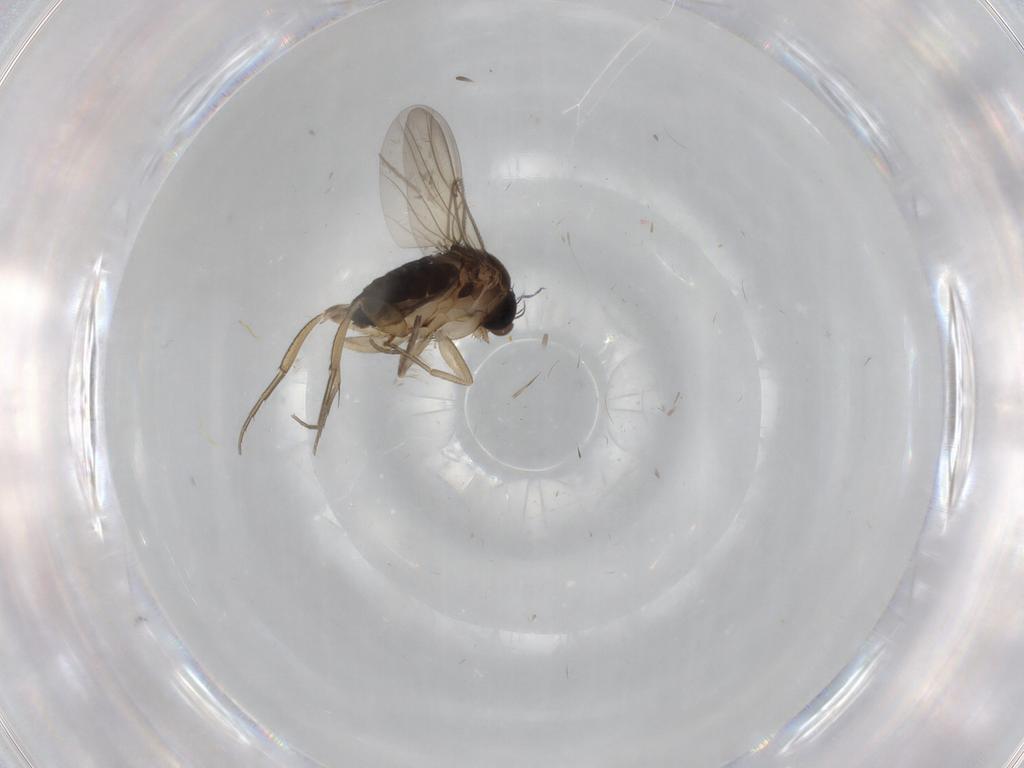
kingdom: Animalia
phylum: Arthropoda
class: Insecta
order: Diptera
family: Phoridae
